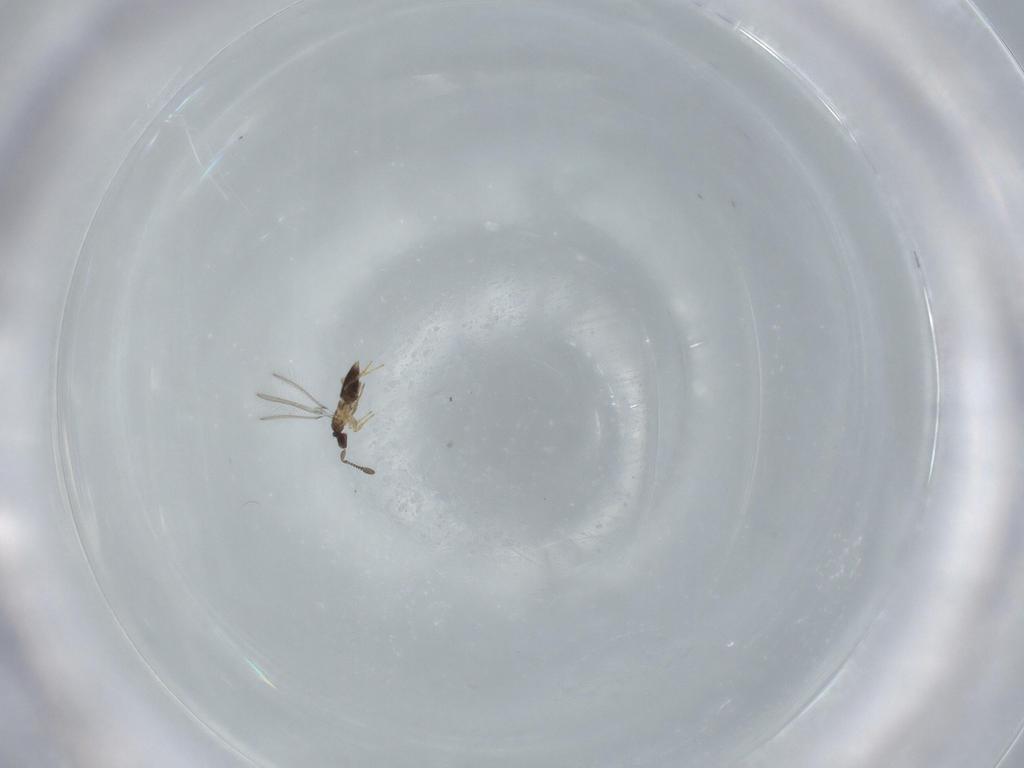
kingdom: Animalia
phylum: Arthropoda
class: Insecta
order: Hymenoptera
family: Mymaridae
